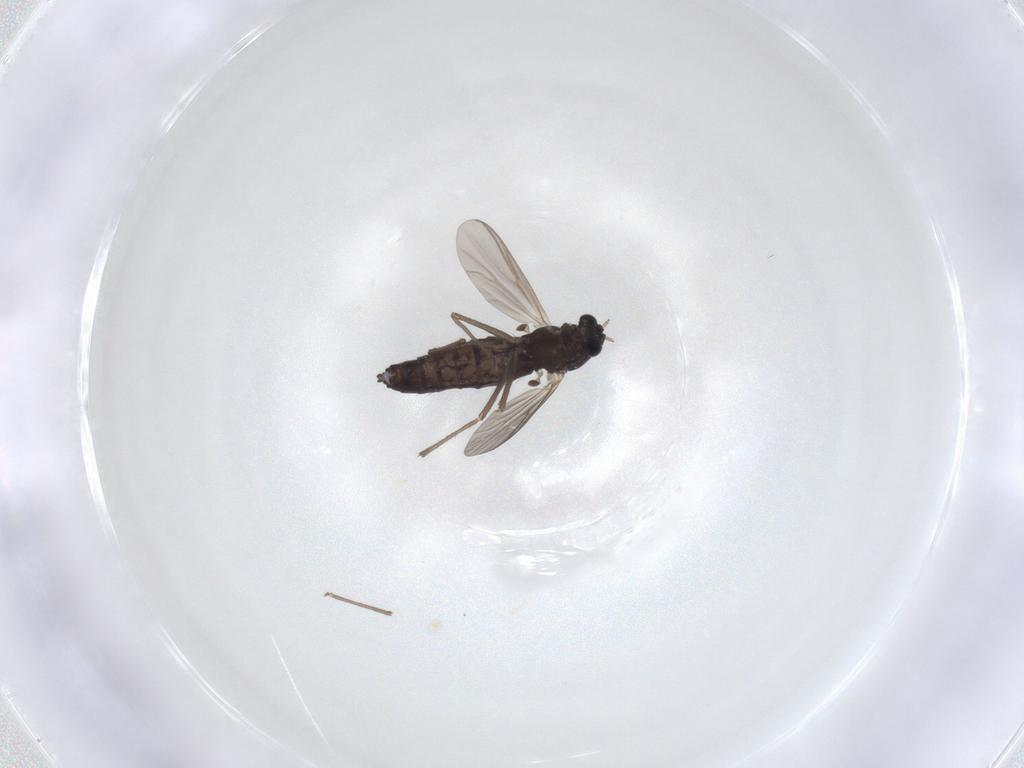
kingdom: Animalia
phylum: Arthropoda
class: Insecta
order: Diptera
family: Chironomidae
